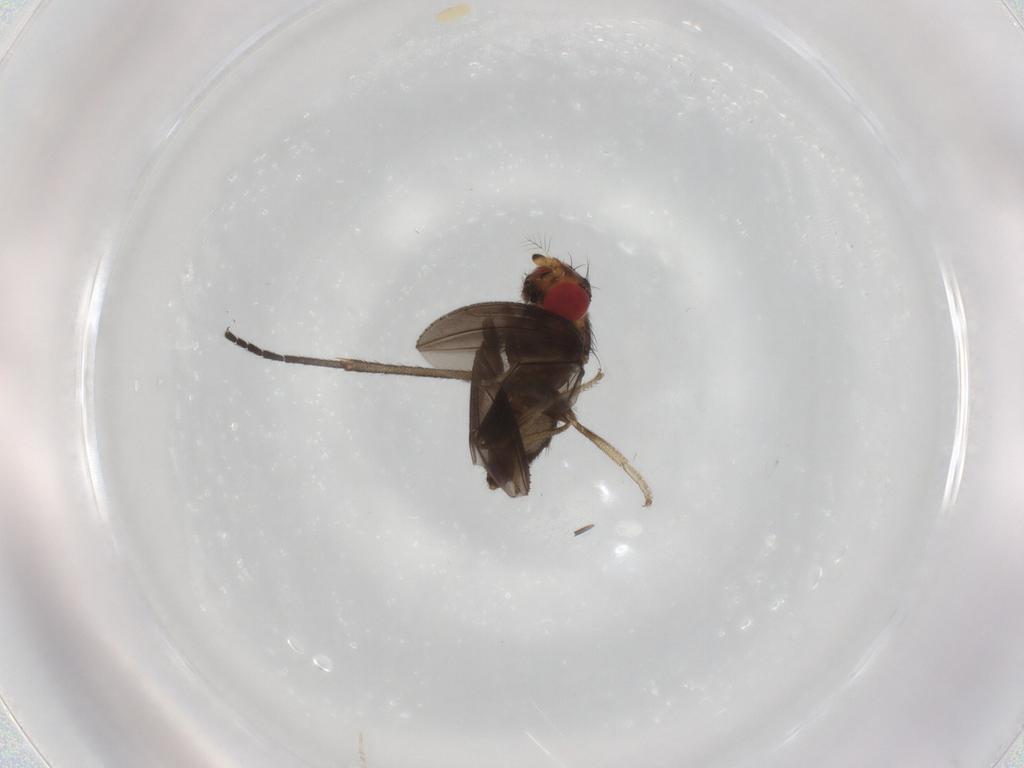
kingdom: Animalia
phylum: Arthropoda
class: Insecta
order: Diptera
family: Sciaridae
